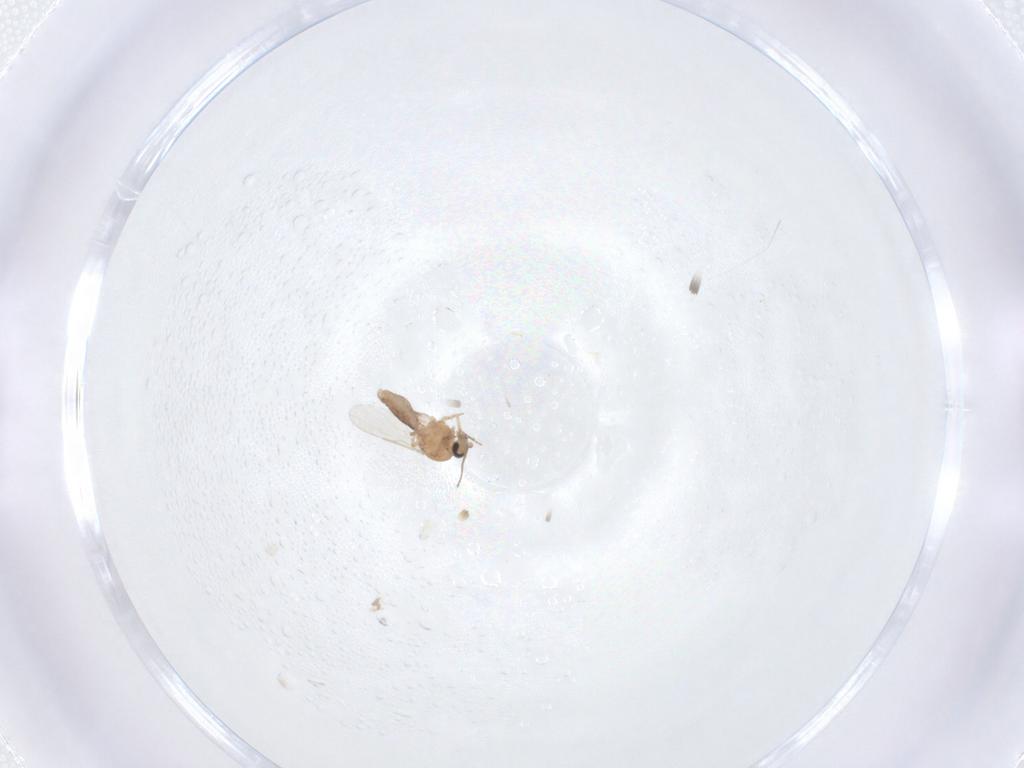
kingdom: Animalia
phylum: Arthropoda
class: Insecta
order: Diptera
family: Ceratopogonidae
